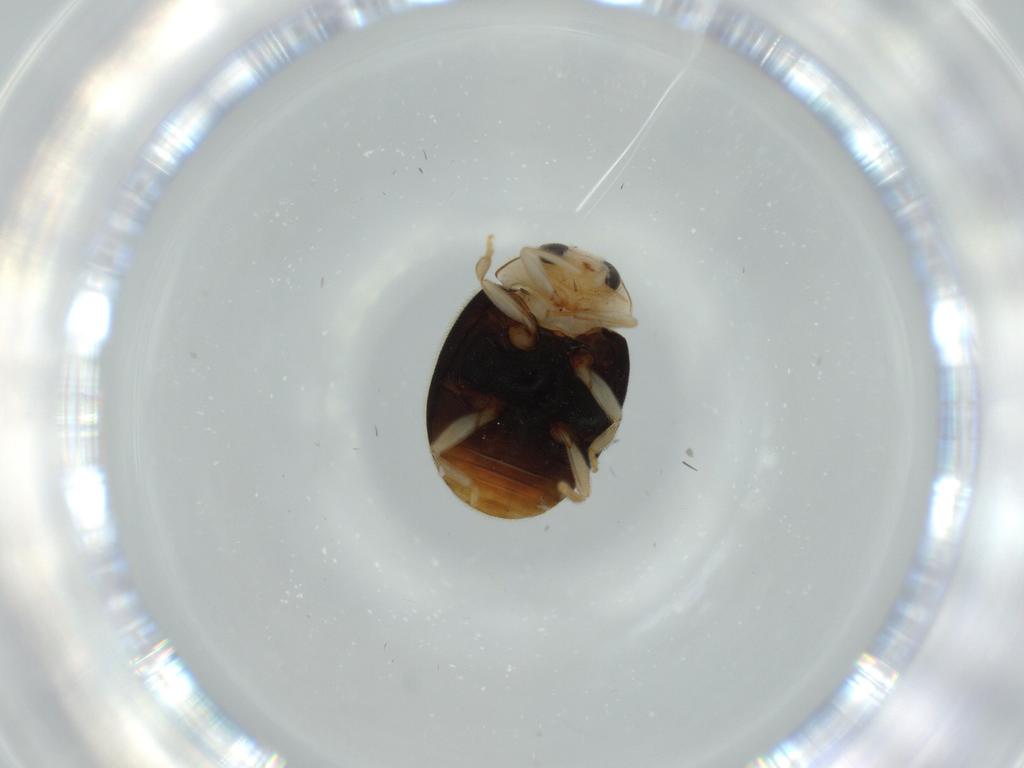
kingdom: Animalia
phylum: Arthropoda
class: Insecta
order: Coleoptera
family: Coccinellidae
